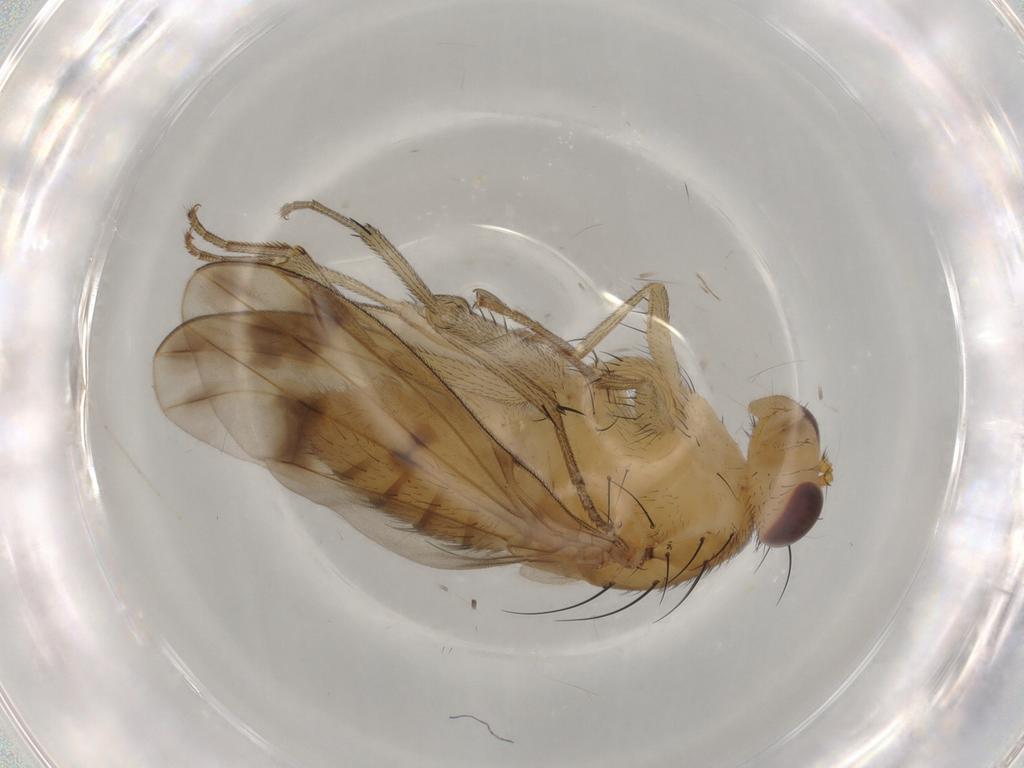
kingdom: Animalia
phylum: Arthropoda
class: Insecta
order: Diptera
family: Chironomidae
